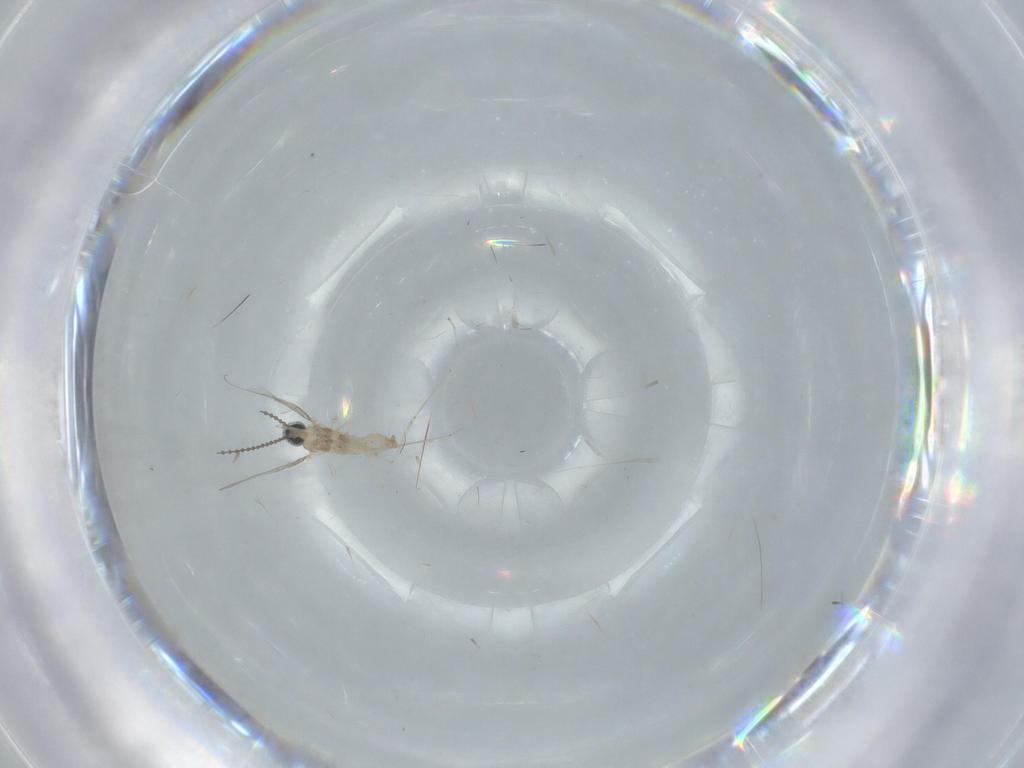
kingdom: Animalia
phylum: Arthropoda
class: Insecta
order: Diptera
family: Cecidomyiidae
